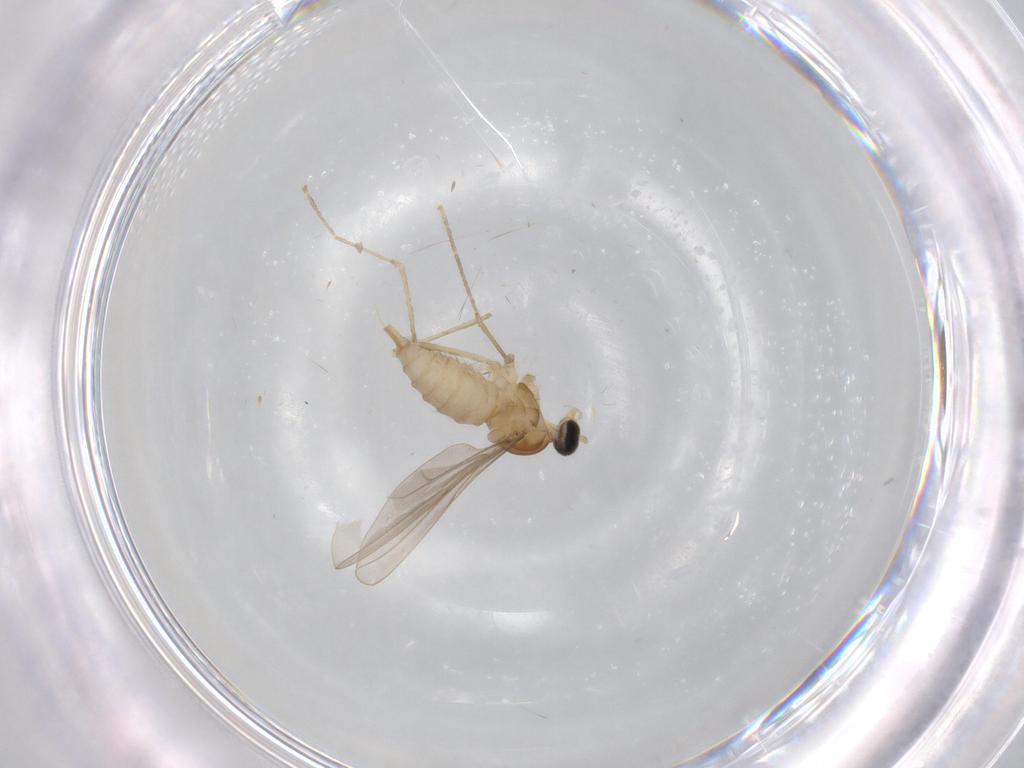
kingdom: Animalia
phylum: Arthropoda
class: Insecta
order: Diptera
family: Cecidomyiidae
